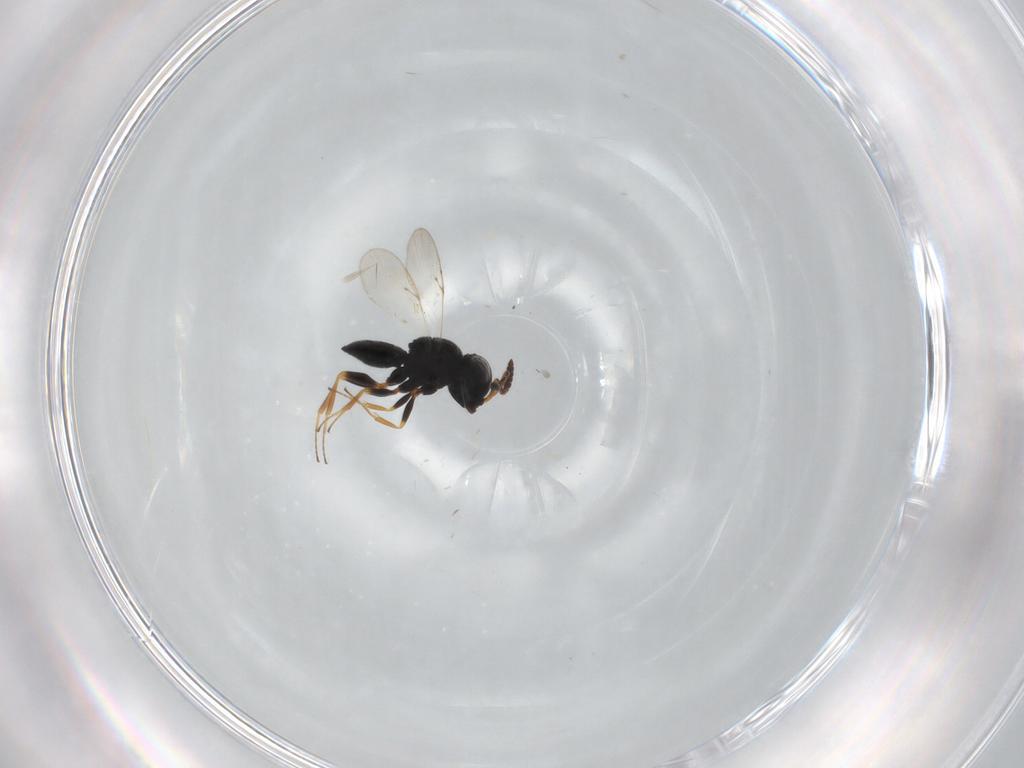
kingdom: Animalia
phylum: Arthropoda
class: Insecta
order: Coleoptera
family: Curculionidae
